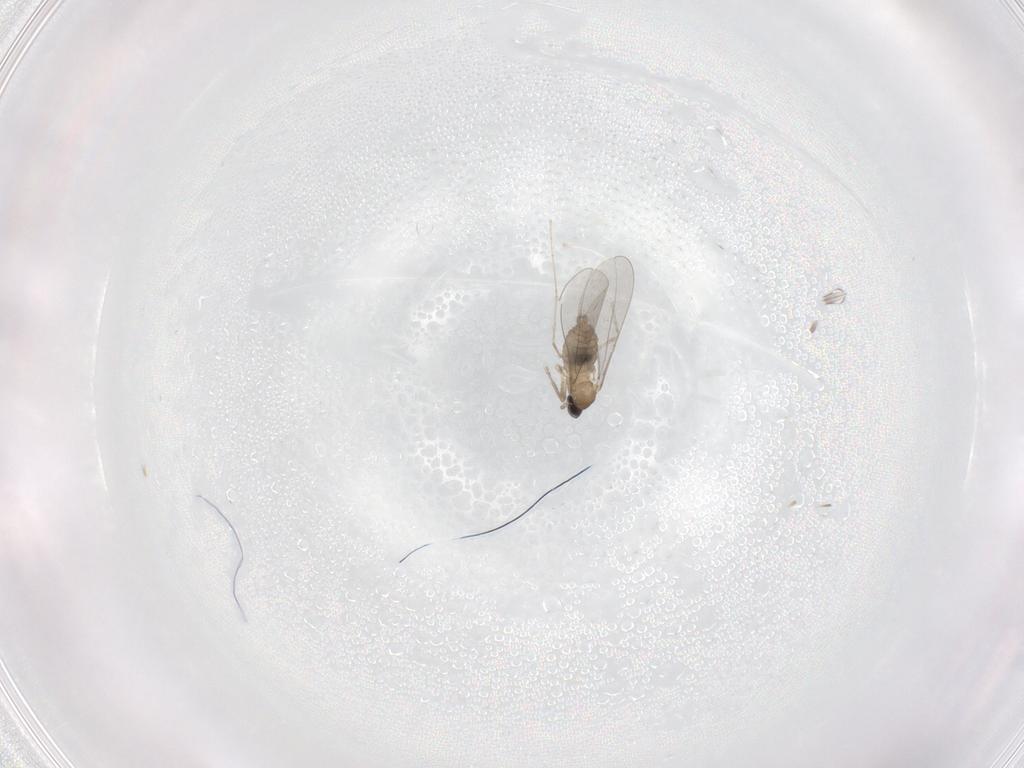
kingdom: Animalia
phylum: Arthropoda
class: Insecta
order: Diptera
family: Cecidomyiidae
